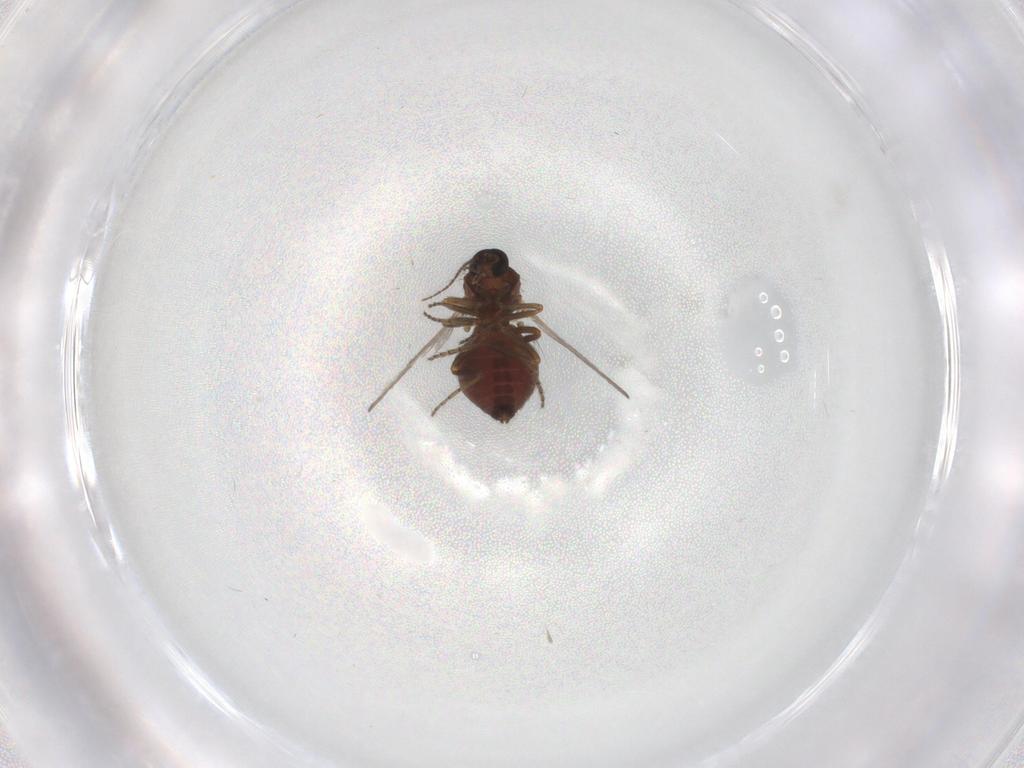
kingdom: Animalia
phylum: Arthropoda
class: Insecta
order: Diptera
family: Ceratopogonidae
